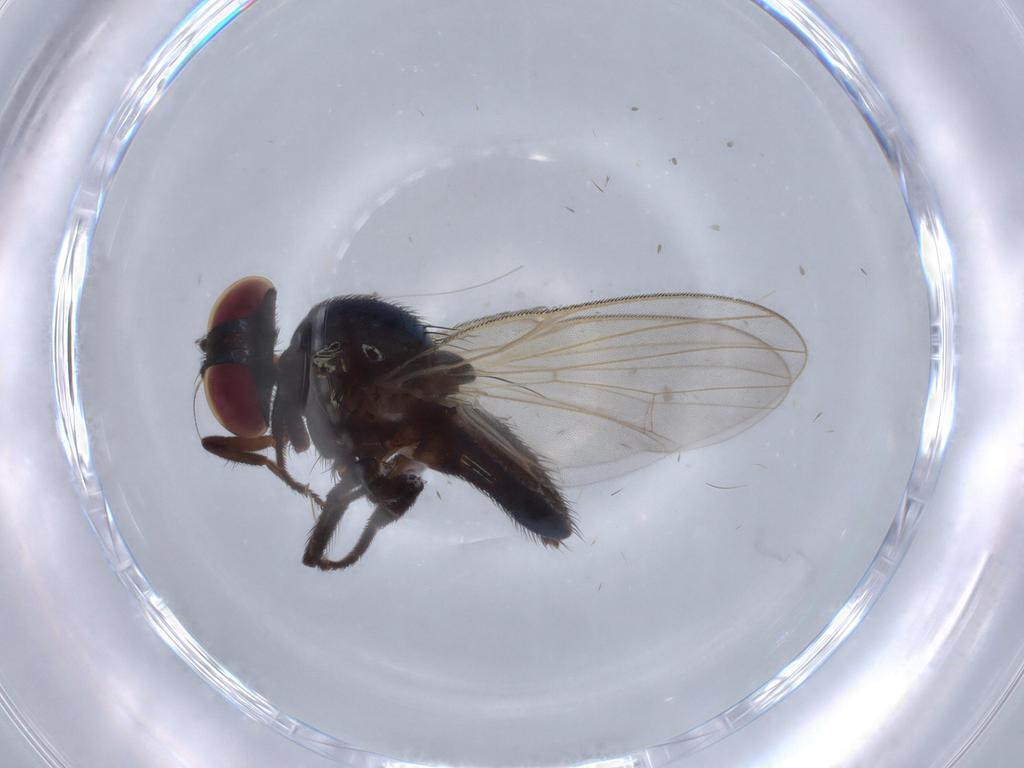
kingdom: Animalia
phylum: Arthropoda
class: Insecta
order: Diptera
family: Lonchaeidae
